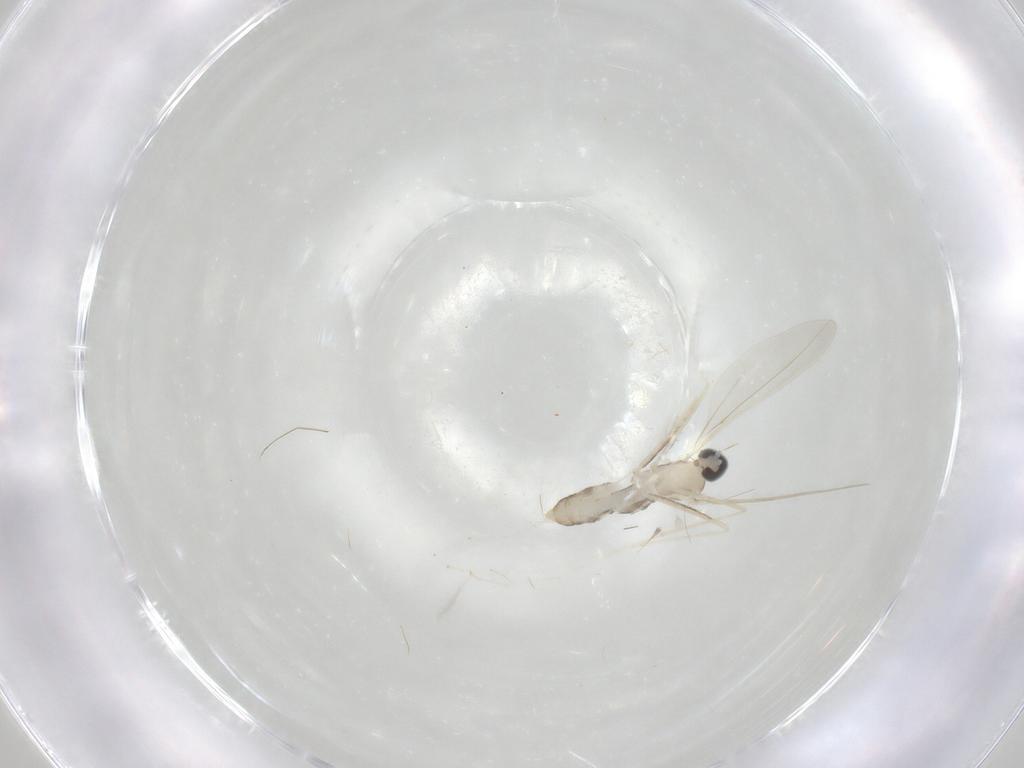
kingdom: Animalia
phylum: Arthropoda
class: Insecta
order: Diptera
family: Cecidomyiidae
